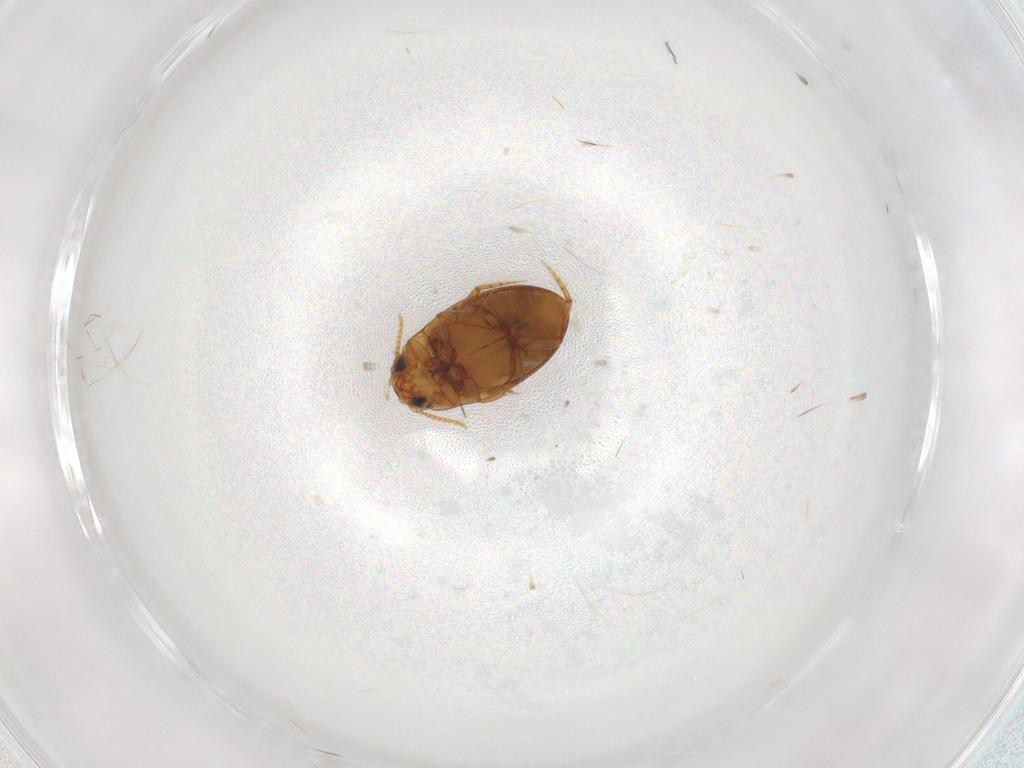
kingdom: Animalia
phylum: Arthropoda
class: Insecta
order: Coleoptera
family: Dytiscidae
